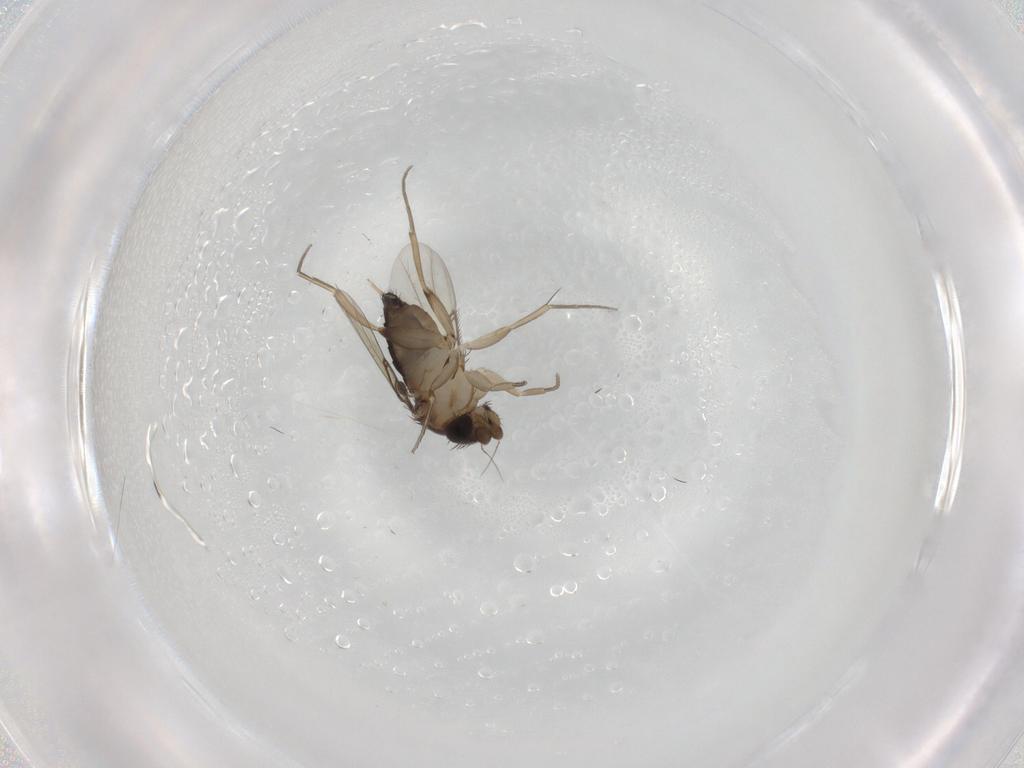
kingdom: Animalia
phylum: Arthropoda
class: Insecta
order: Diptera
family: Phoridae
